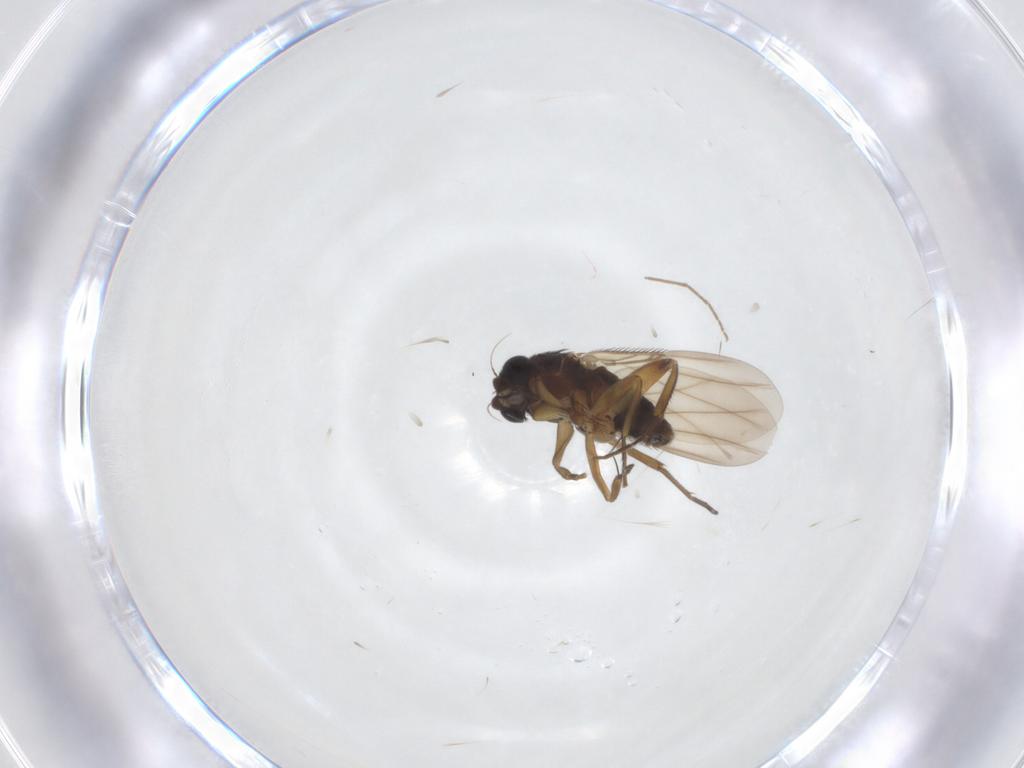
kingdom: Animalia
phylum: Arthropoda
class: Insecta
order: Diptera
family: Phoridae
